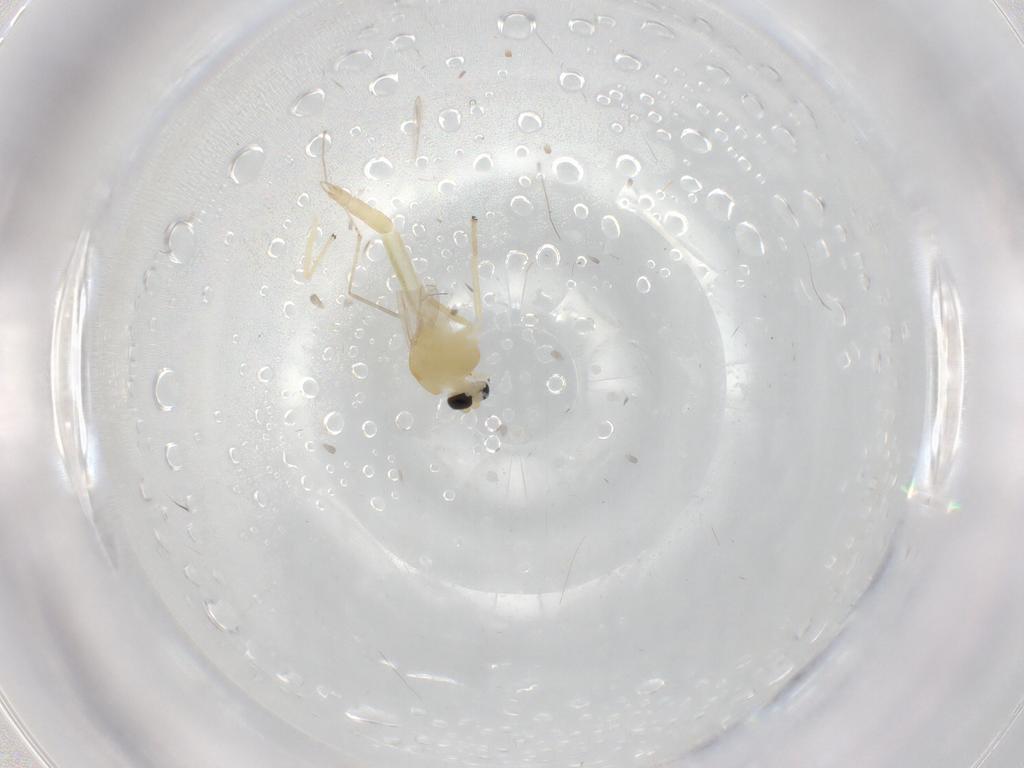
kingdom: Animalia
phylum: Arthropoda
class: Insecta
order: Diptera
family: Chironomidae
